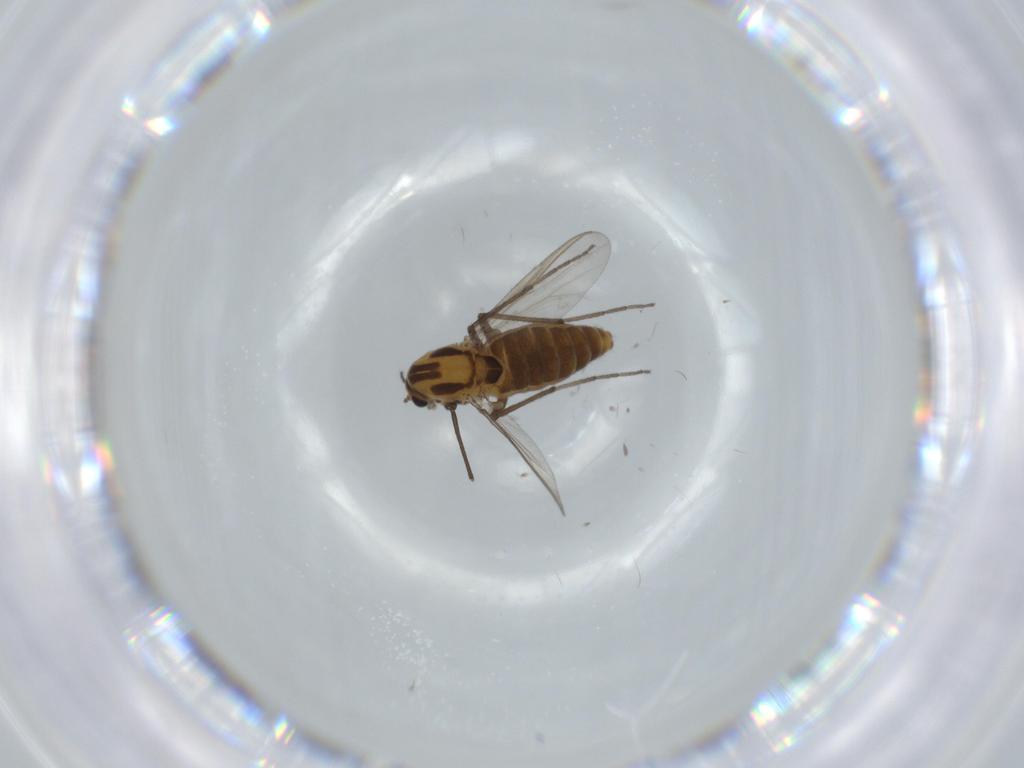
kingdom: Animalia
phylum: Arthropoda
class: Insecta
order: Diptera
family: Chironomidae
